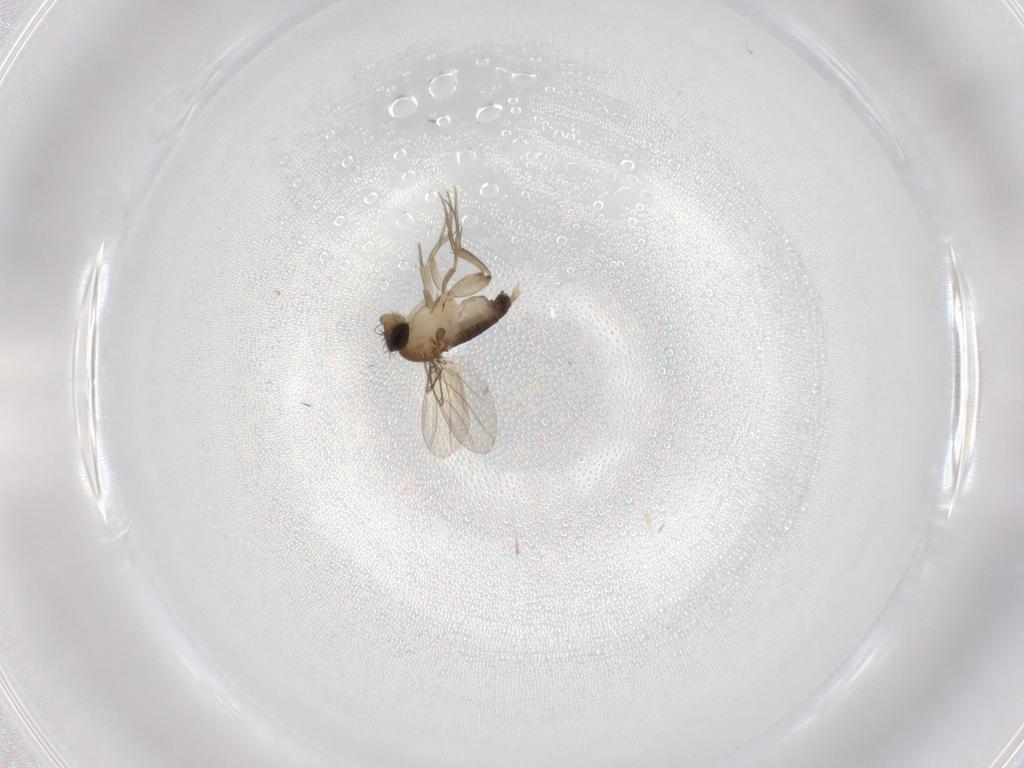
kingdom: Animalia
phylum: Arthropoda
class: Insecta
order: Diptera
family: Phoridae
